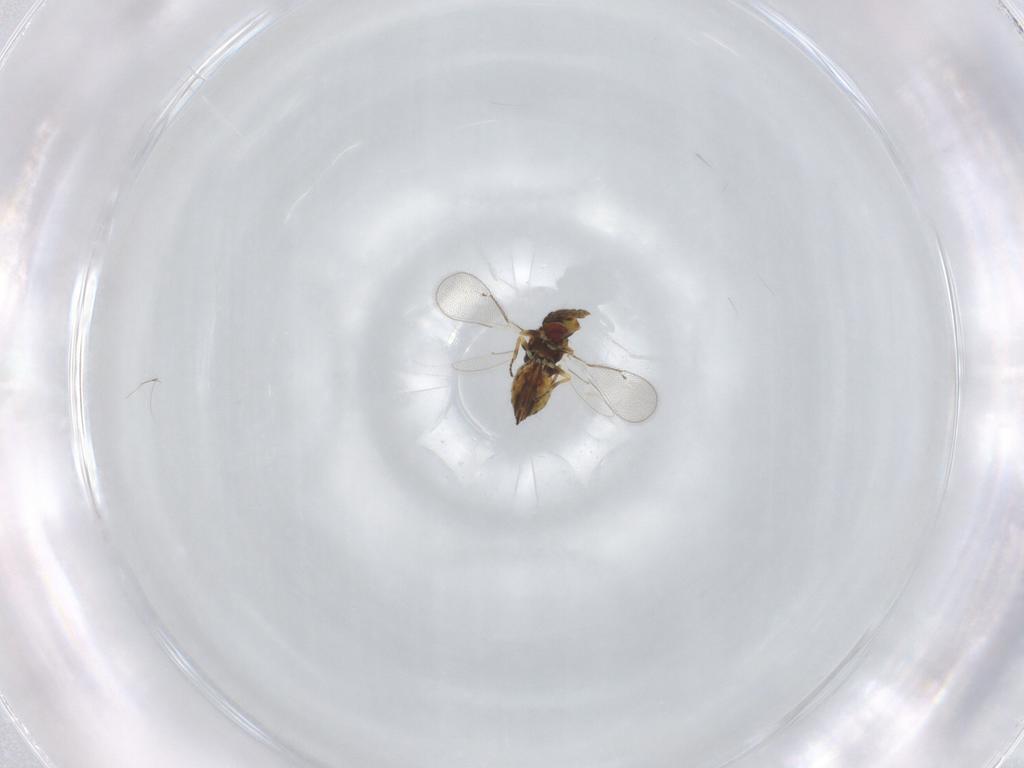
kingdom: Animalia
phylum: Arthropoda
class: Insecta
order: Hymenoptera
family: Eulophidae
